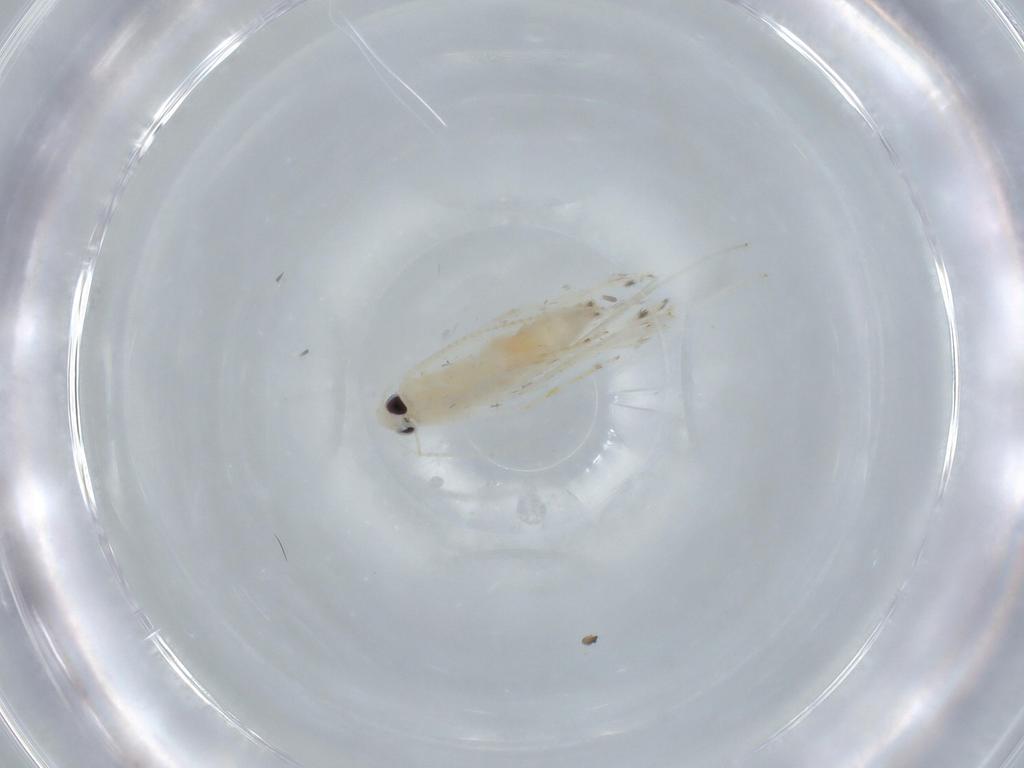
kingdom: Animalia
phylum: Arthropoda
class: Insecta
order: Lepidoptera
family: Gracillariidae
